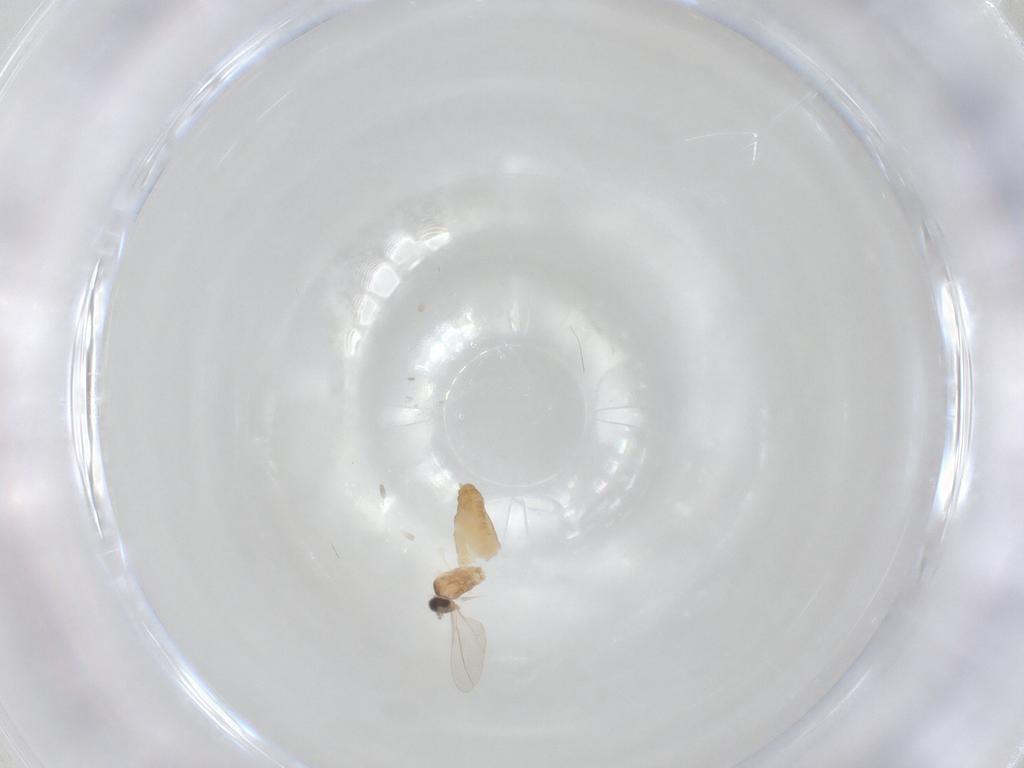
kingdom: Animalia
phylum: Arthropoda
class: Insecta
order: Diptera
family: Cecidomyiidae
